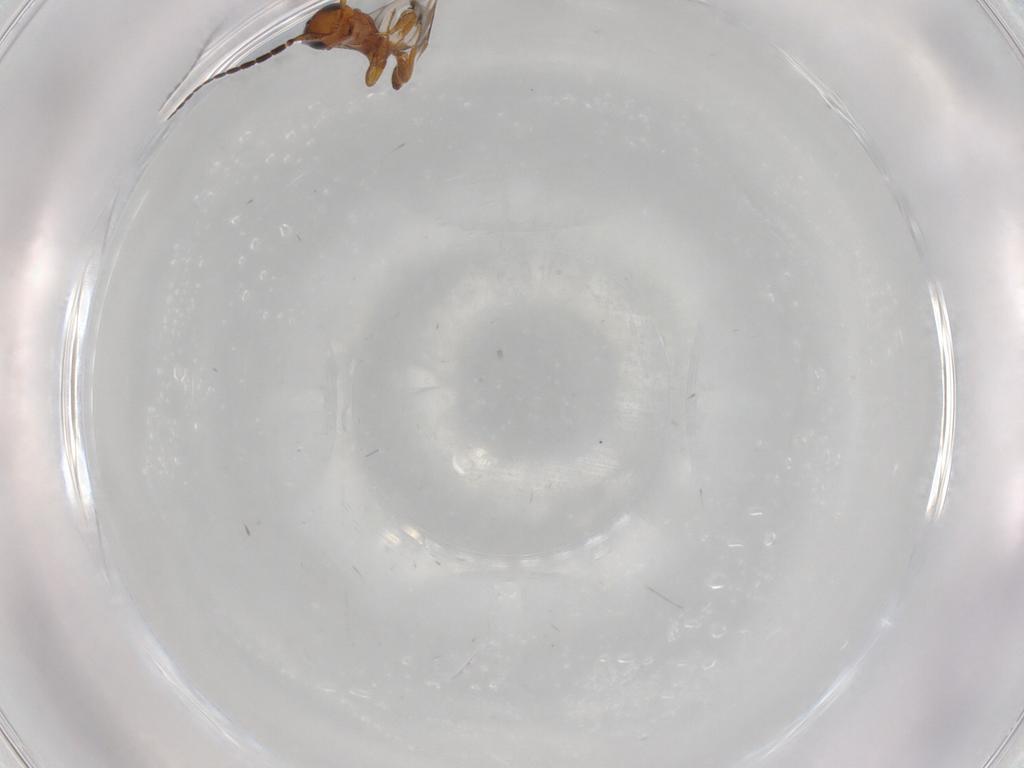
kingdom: Animalia
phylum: Arthropoda
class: Insecta
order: Hymenoptera
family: Scelionidae
